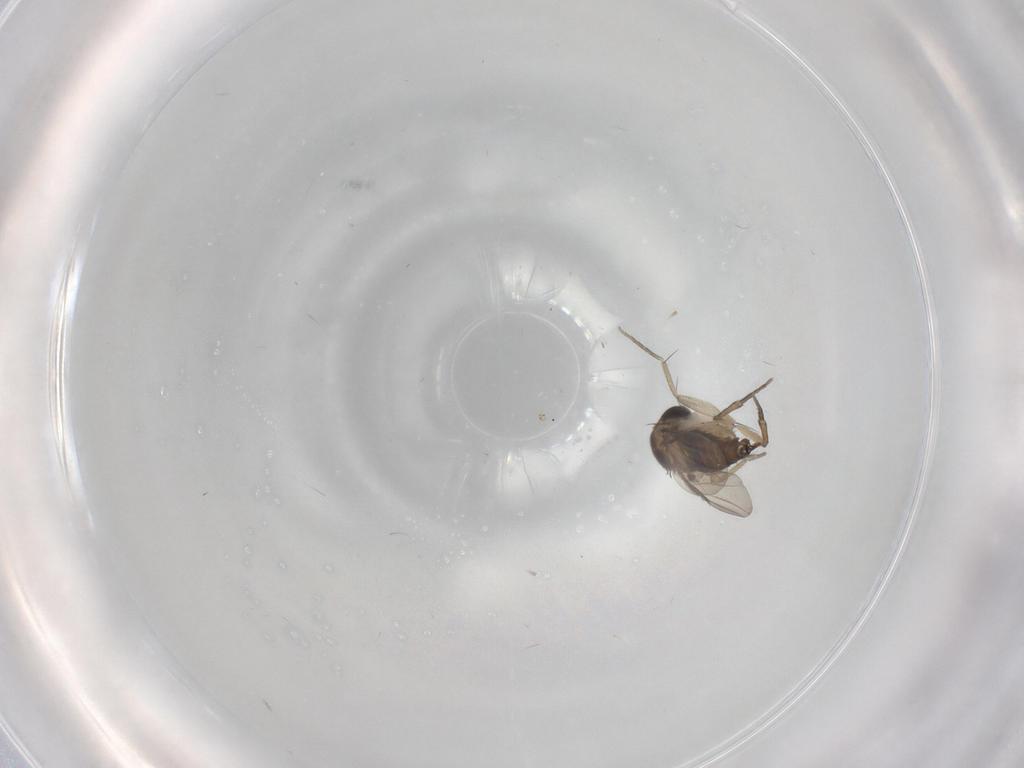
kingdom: Animalia
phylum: Arthropoda
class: Insecta
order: Diptera
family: Phoridae
